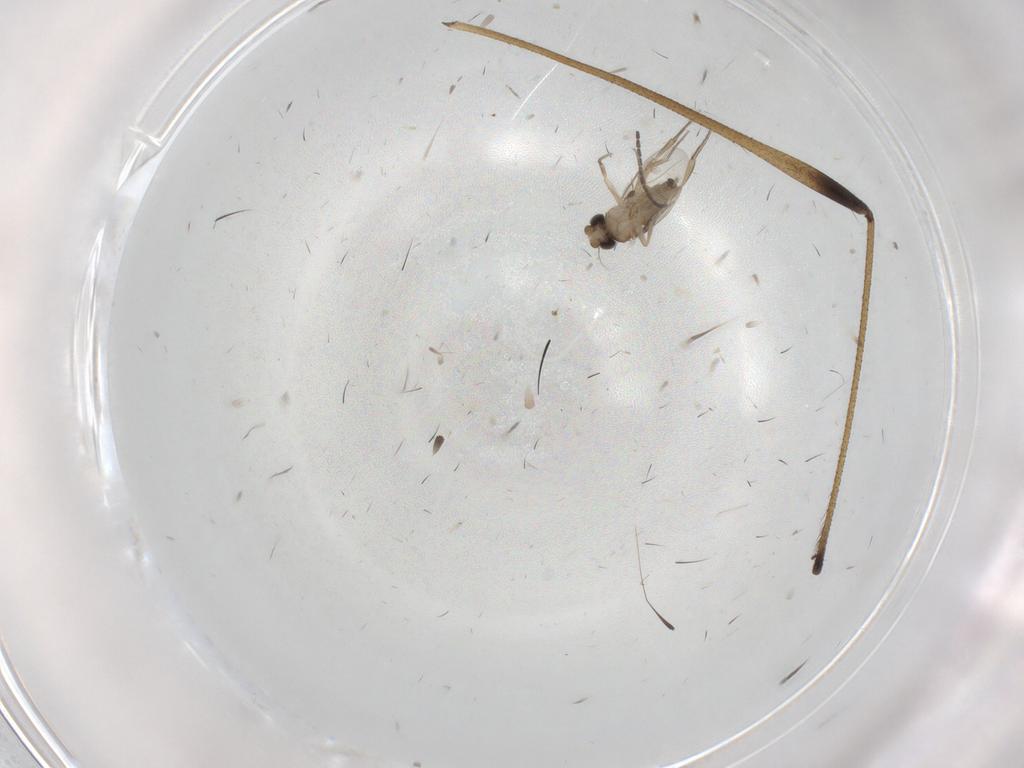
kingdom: Animalia
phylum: Arthropoda
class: Insecta
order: Diptera
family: Limoniidae
